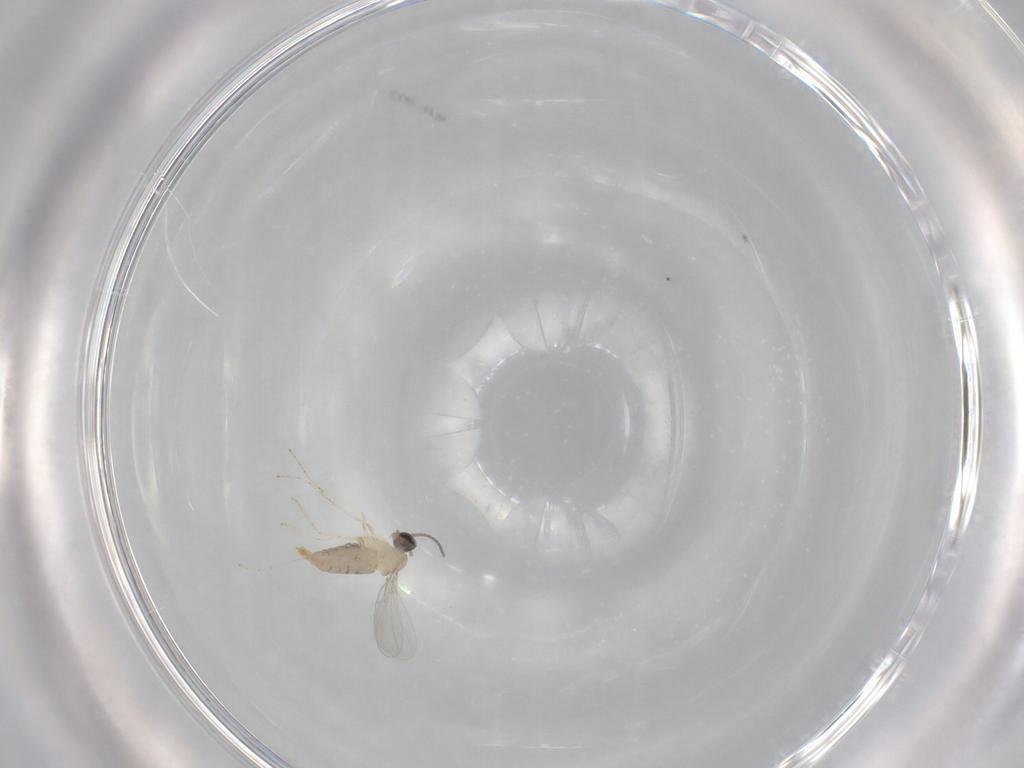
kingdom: Animalia
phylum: Arthropoda
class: Insecta
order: Diptera
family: Cecidomyiidae
